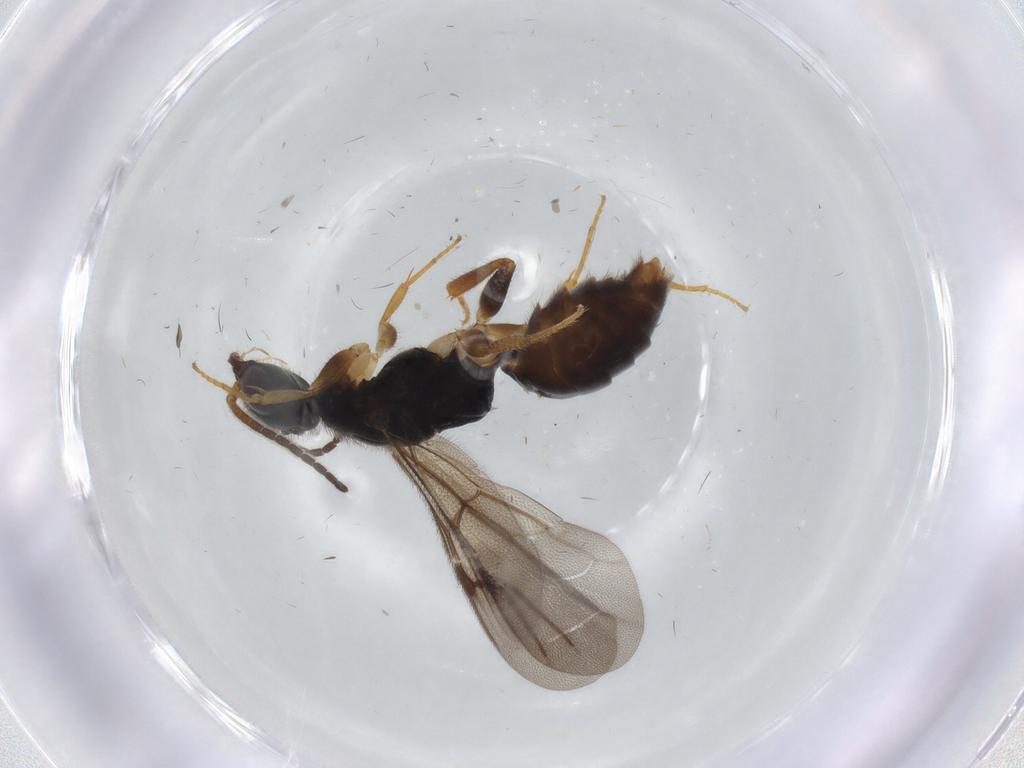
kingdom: Animalia
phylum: Arthropoda
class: Insecta
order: Hymenoptera
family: Bethylidae
